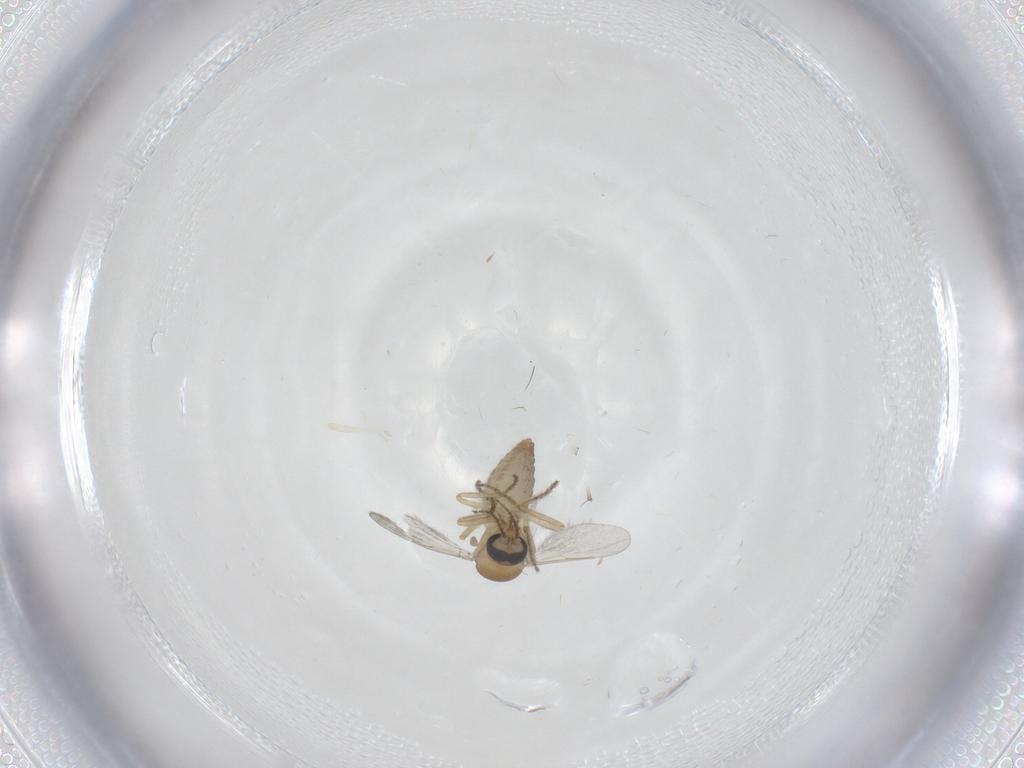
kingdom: Animalia
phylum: Arthropoda
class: Insecta
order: Diptera
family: Ceratopogonidae
